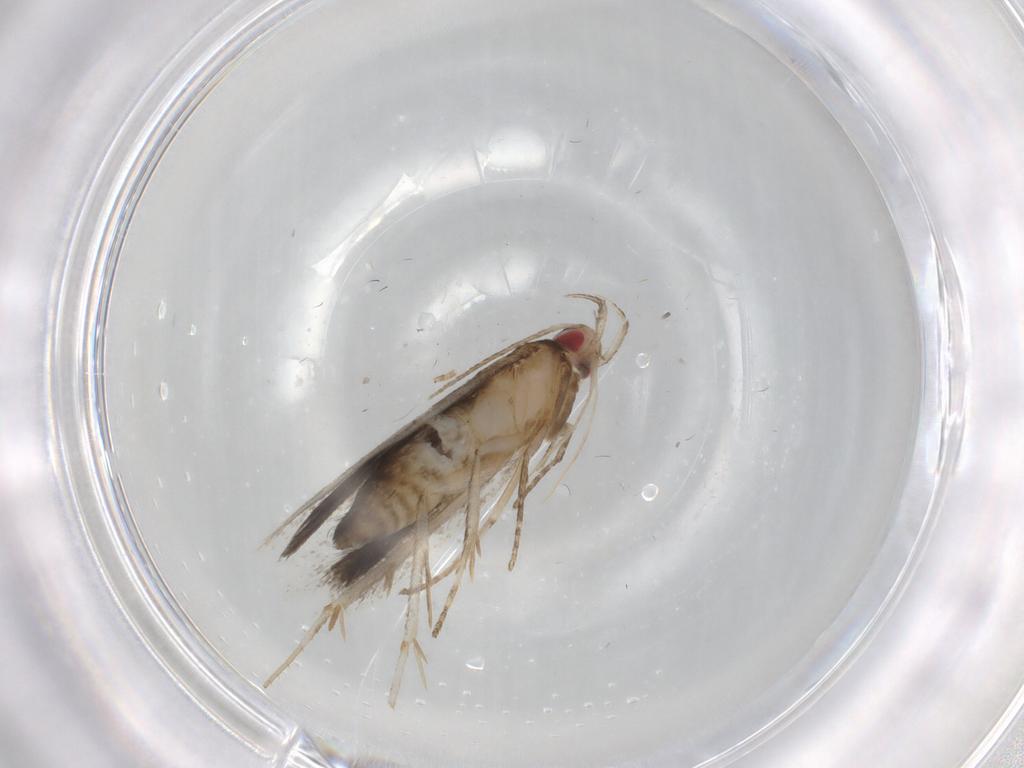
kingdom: Animalia
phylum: Arthropoda
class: Insecta
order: Lepidoptera
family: Gelechiidae
